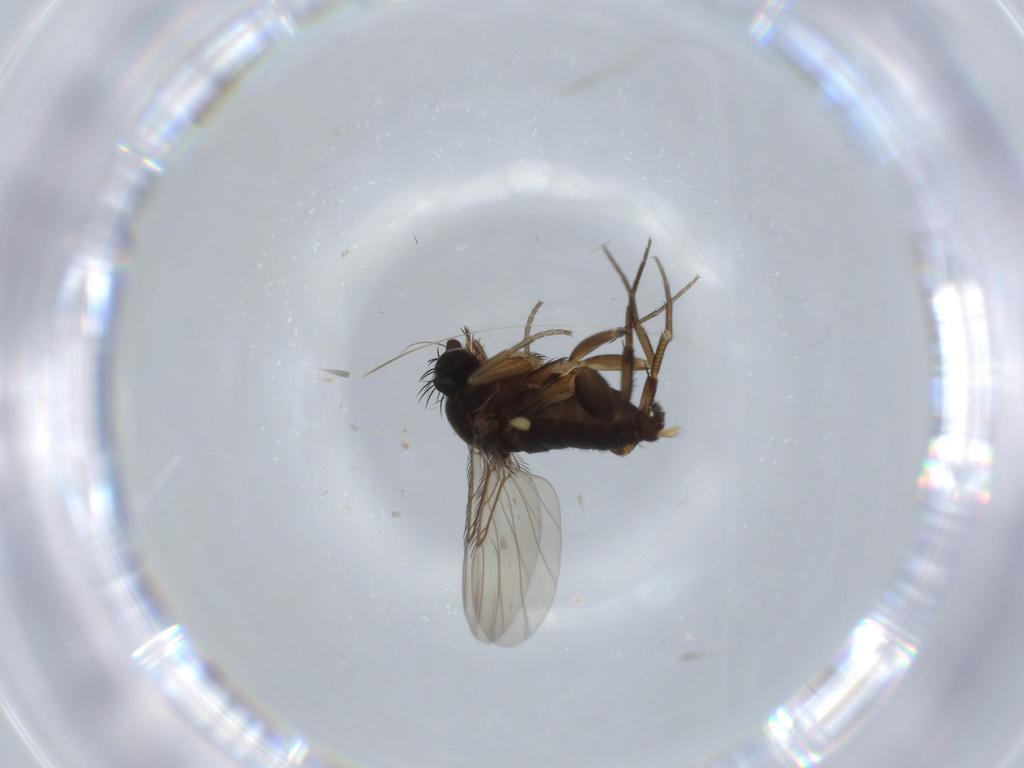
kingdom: Animalia
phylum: Arthropoda
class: Insecta
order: Diptera
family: Phoridae
